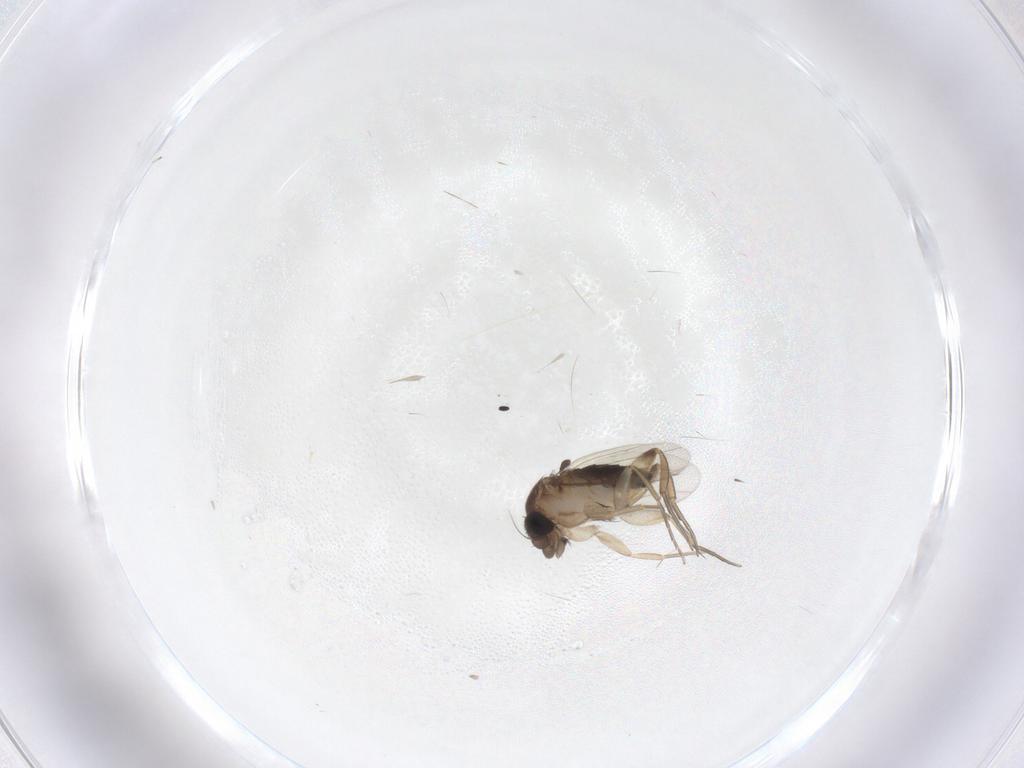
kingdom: Animalia
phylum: Arthropoda
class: Insecta
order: Diptera
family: Phoridae
